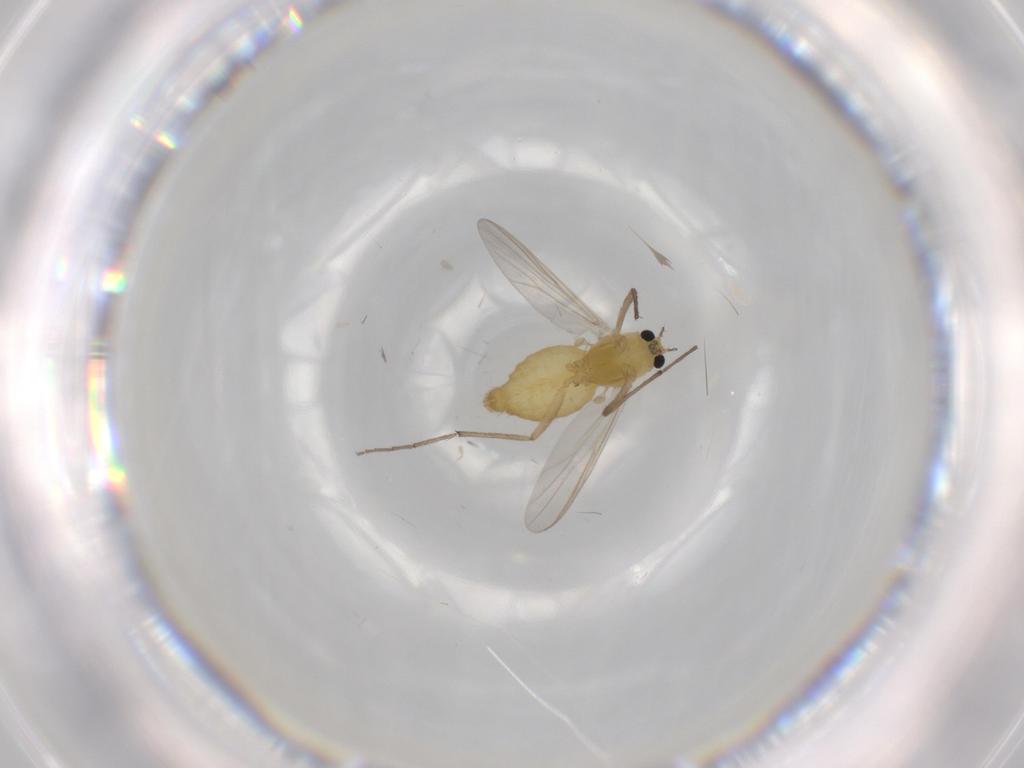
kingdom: Animalia
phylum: Arthropoda
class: Insecta
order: Diptera
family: Chironomidae
